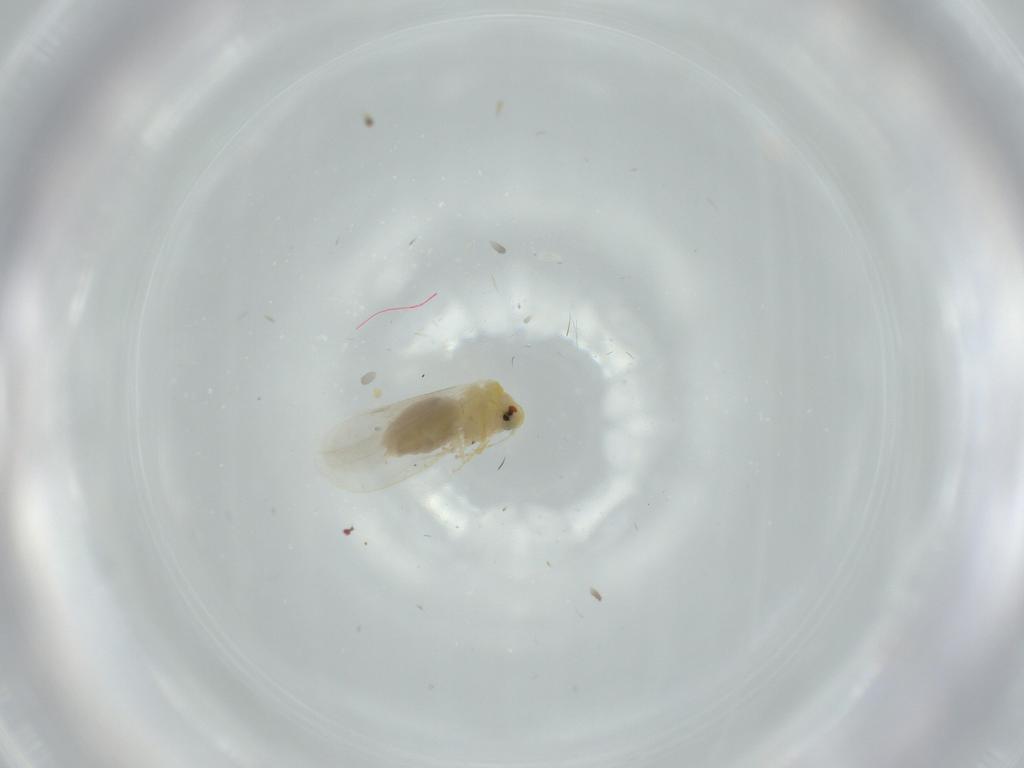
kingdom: Animalia
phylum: Arthropoda
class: Insecta
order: Hemiptera
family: Aleyrodidae
